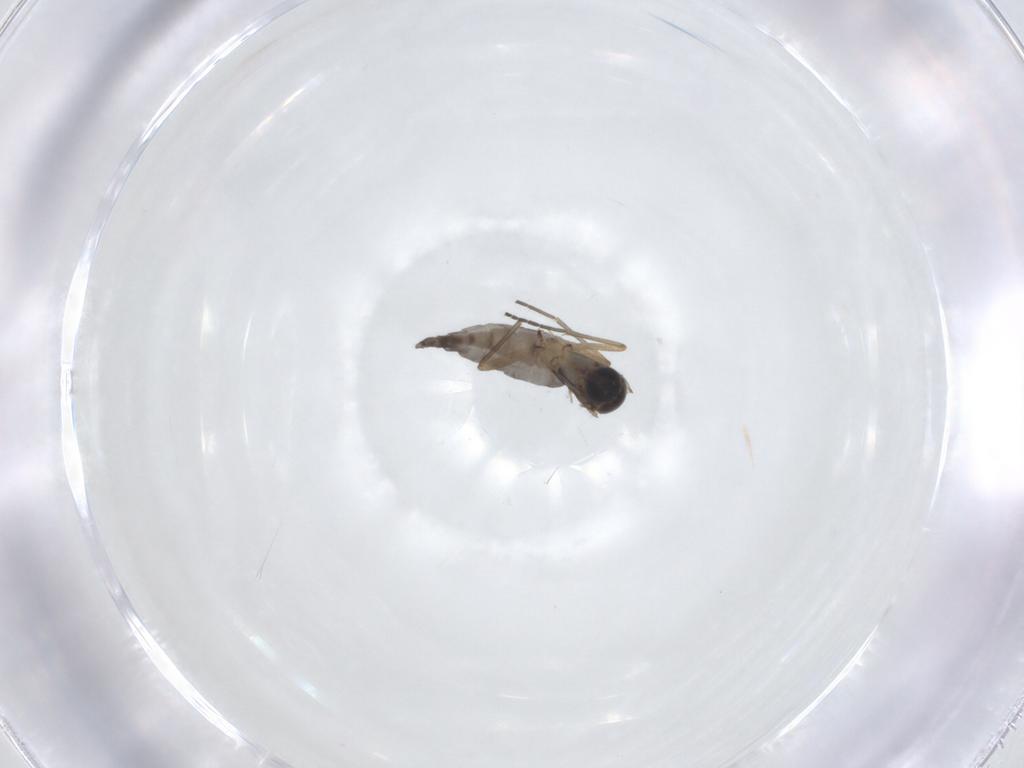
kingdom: Animalia
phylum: Arthropoda
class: Insecta
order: Diptera
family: Sciaridae
